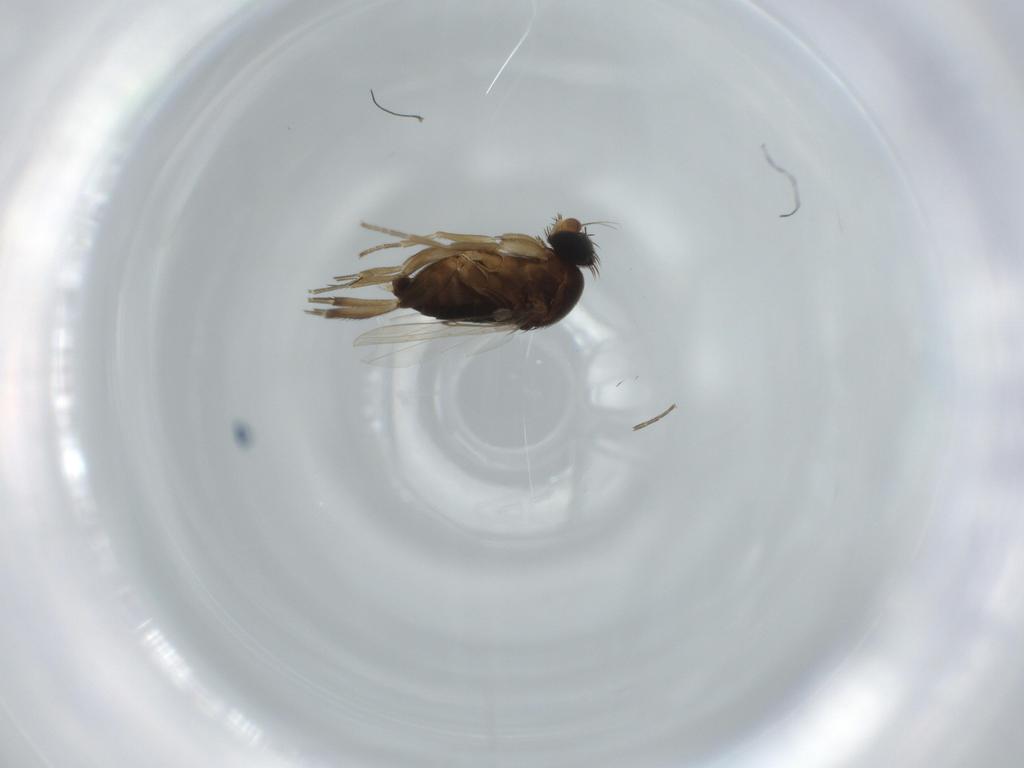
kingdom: Animalia
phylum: Arthropoda
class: Insecta
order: Diptera
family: Phoridae
